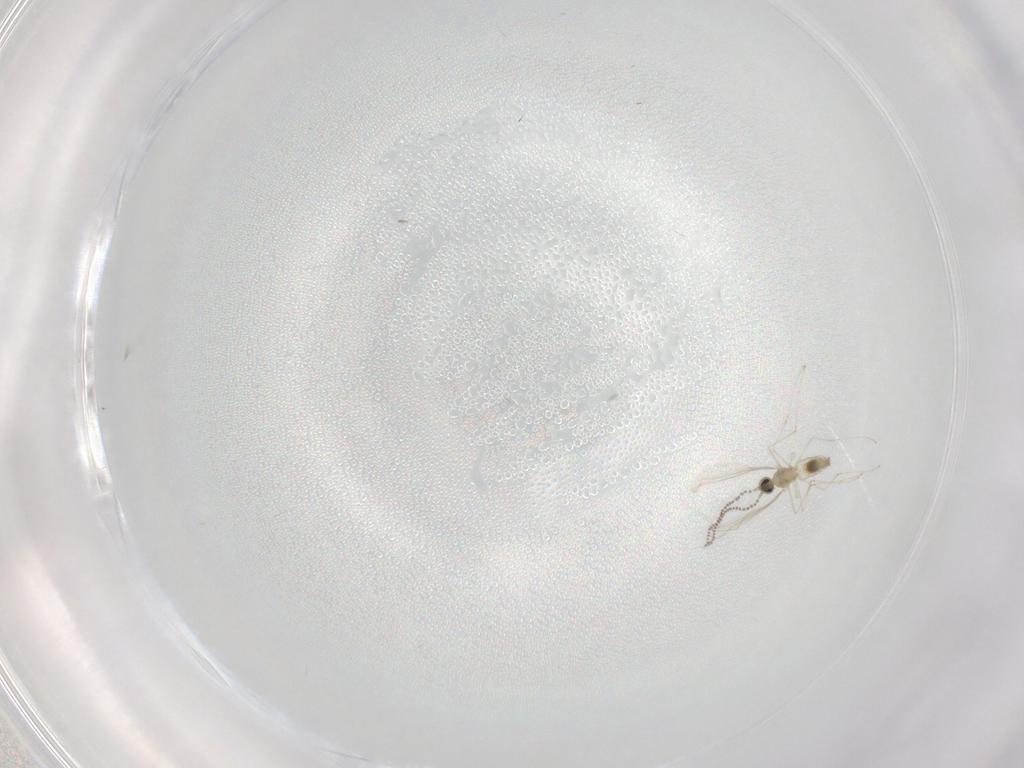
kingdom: Animalia
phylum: Arthropoda
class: Insecta
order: Diptera
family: Cecidomyiidae
